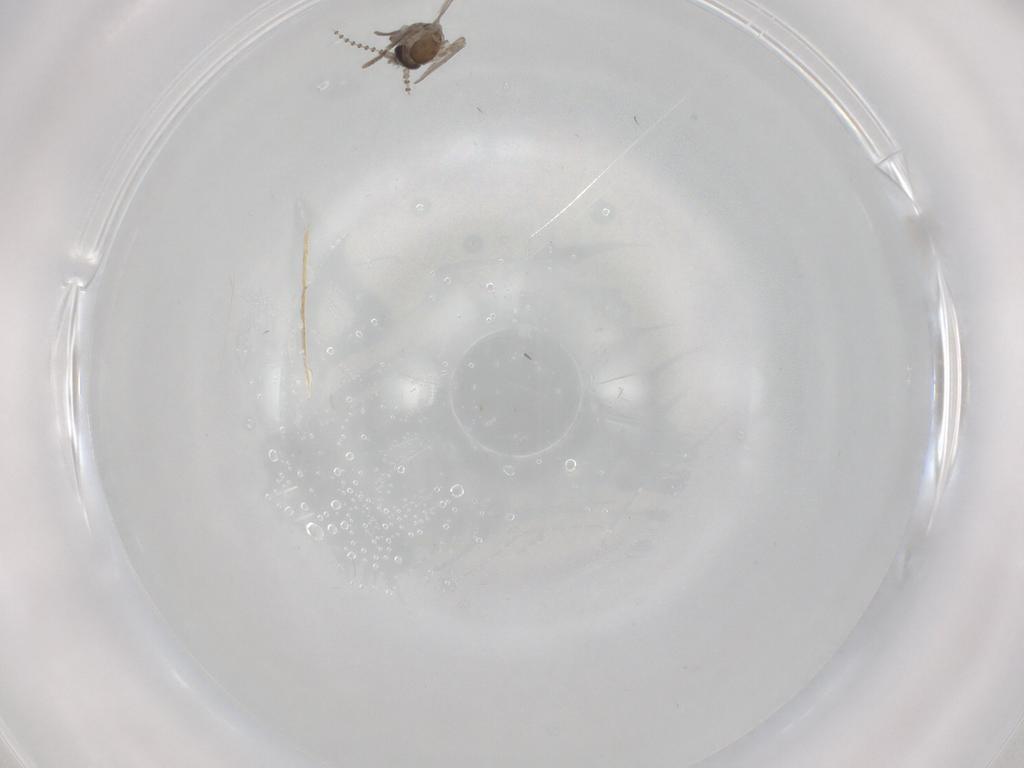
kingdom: Animalia
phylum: Arthropoda
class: Insecta
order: Diptera
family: Psychodidae
